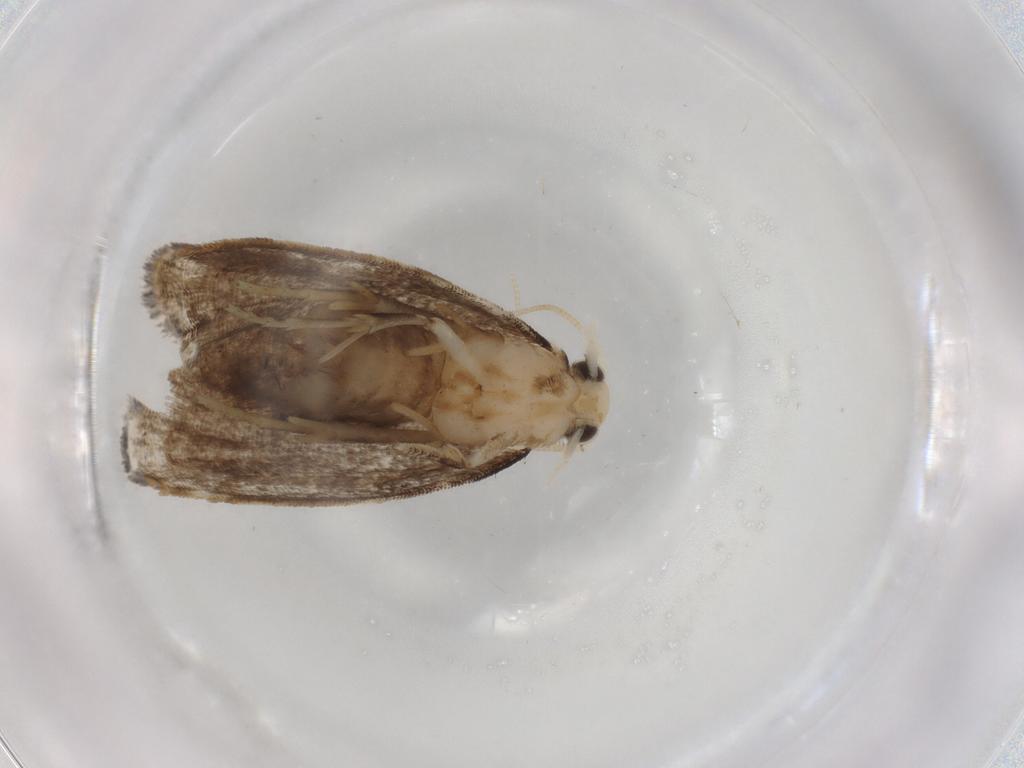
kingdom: Animalia
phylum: Arthropoda
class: Insecta
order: Lepidoptera
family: Dryadaulidae
